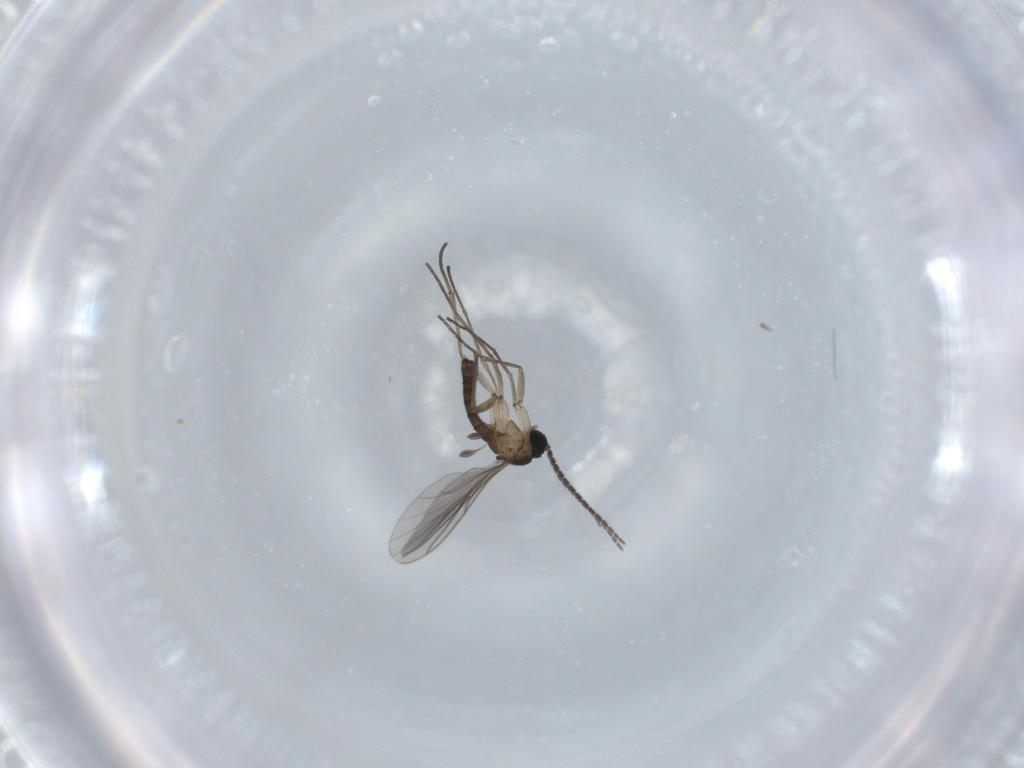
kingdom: Animalia
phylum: Arthropoda
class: Insecta
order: Diptera
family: Sciaridae
